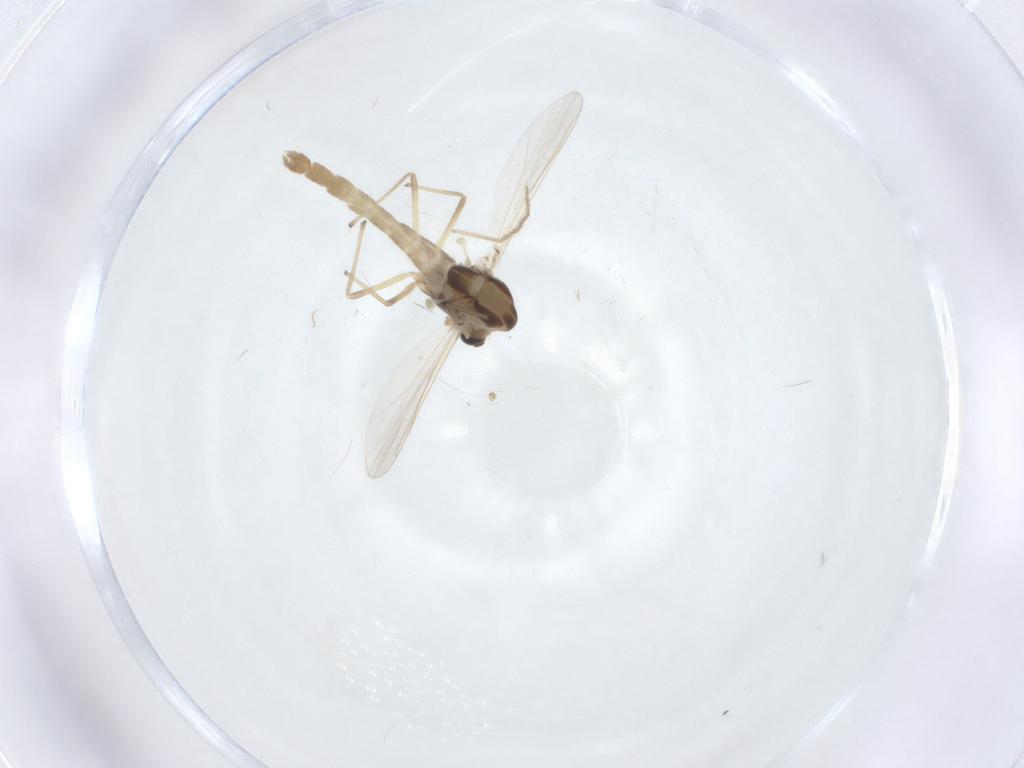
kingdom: Animalia
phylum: Arthropoda
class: Insecta
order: Diptera
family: Chironomidae
